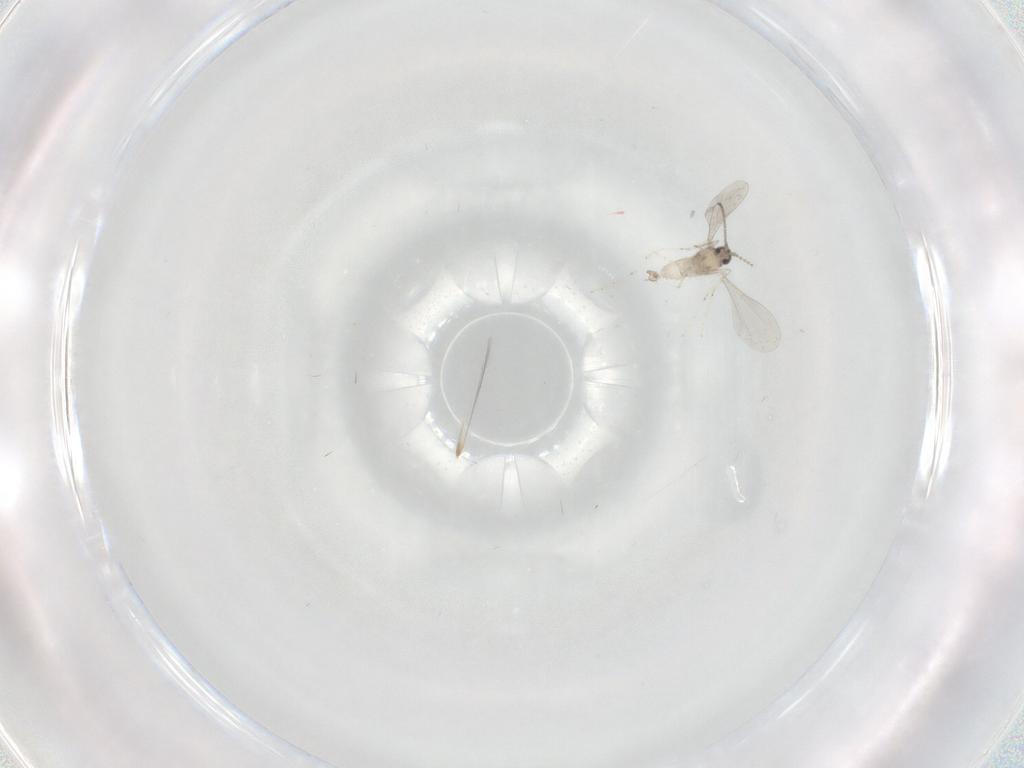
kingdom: Animalia
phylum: Arthropoda
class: Insecta
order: Diptera
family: Cecidomyiidae
